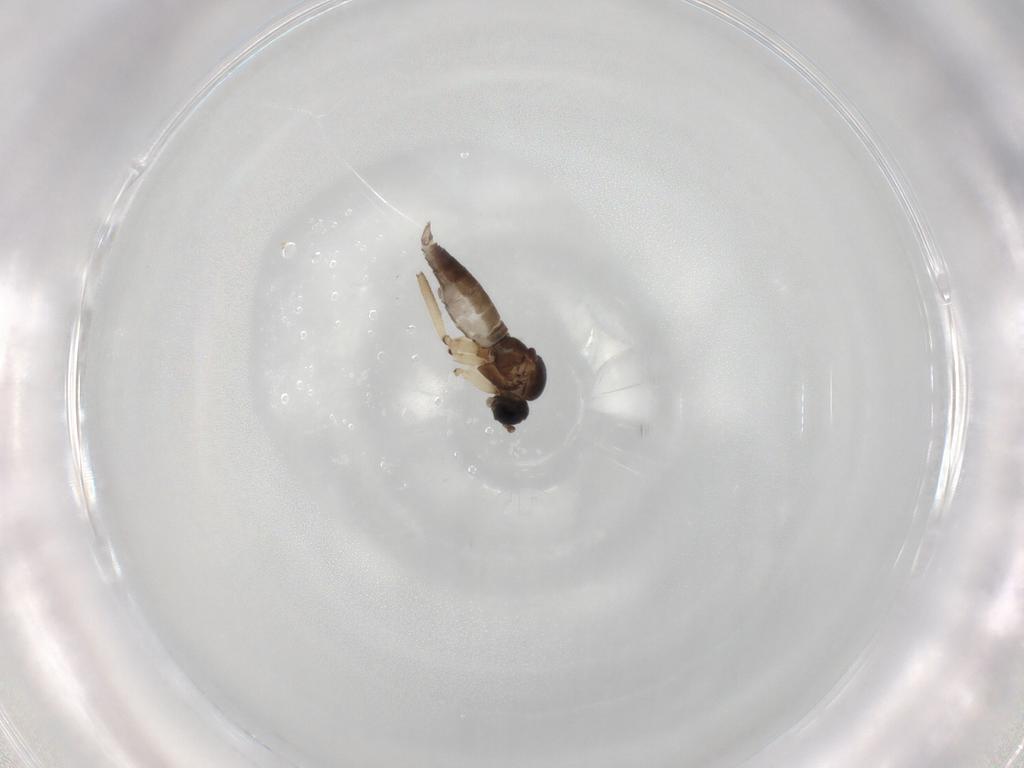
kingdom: Animalia
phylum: Arthropoda
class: Insecta
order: Diptera
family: Sciaridae
